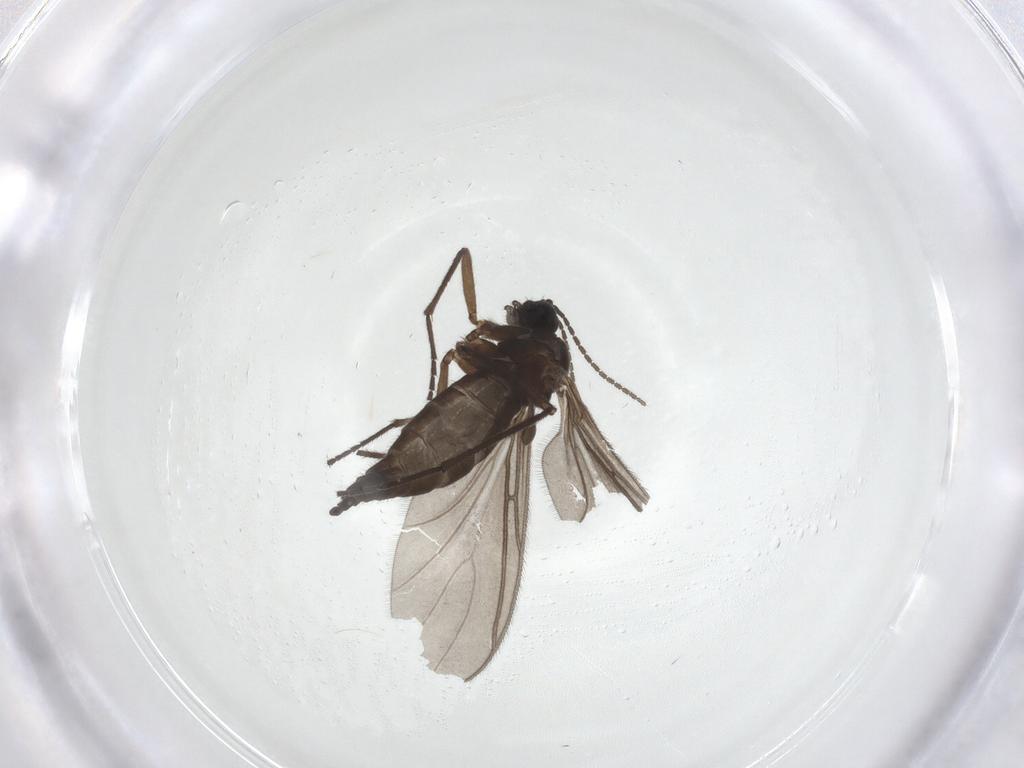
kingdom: Animalia
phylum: Arthropoda
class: Insecta
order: Diptera
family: Sciaridae
